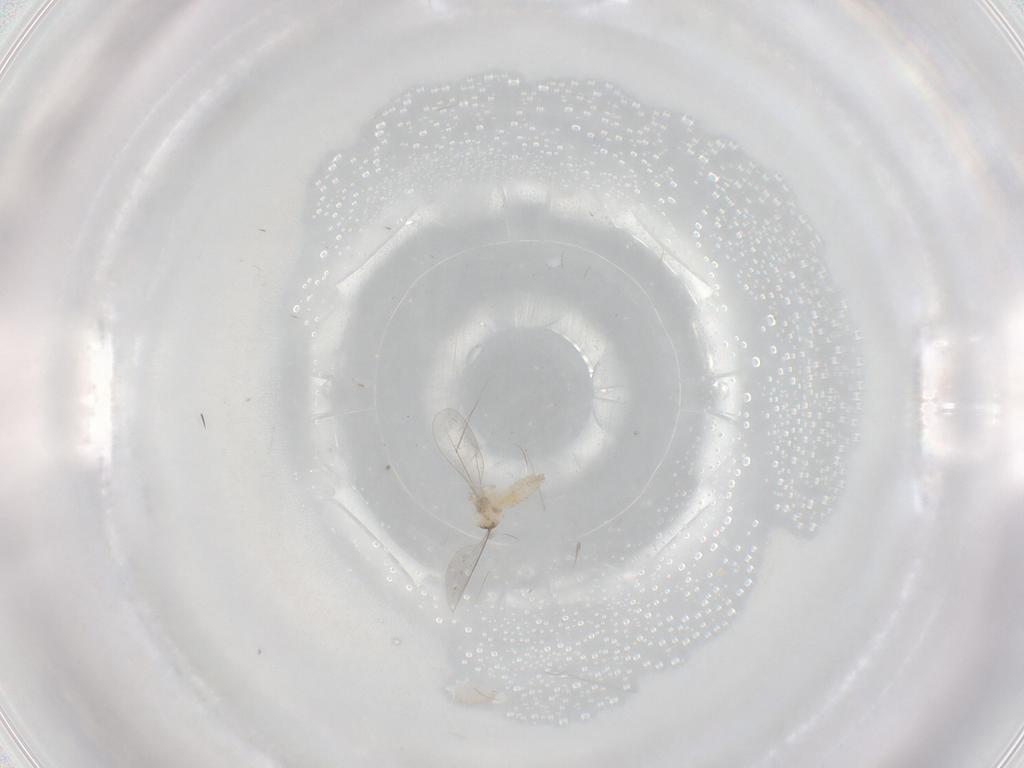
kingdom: Animalia
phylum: Arthropoda
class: Insecta
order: Diptera
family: Cecidomyiidae
